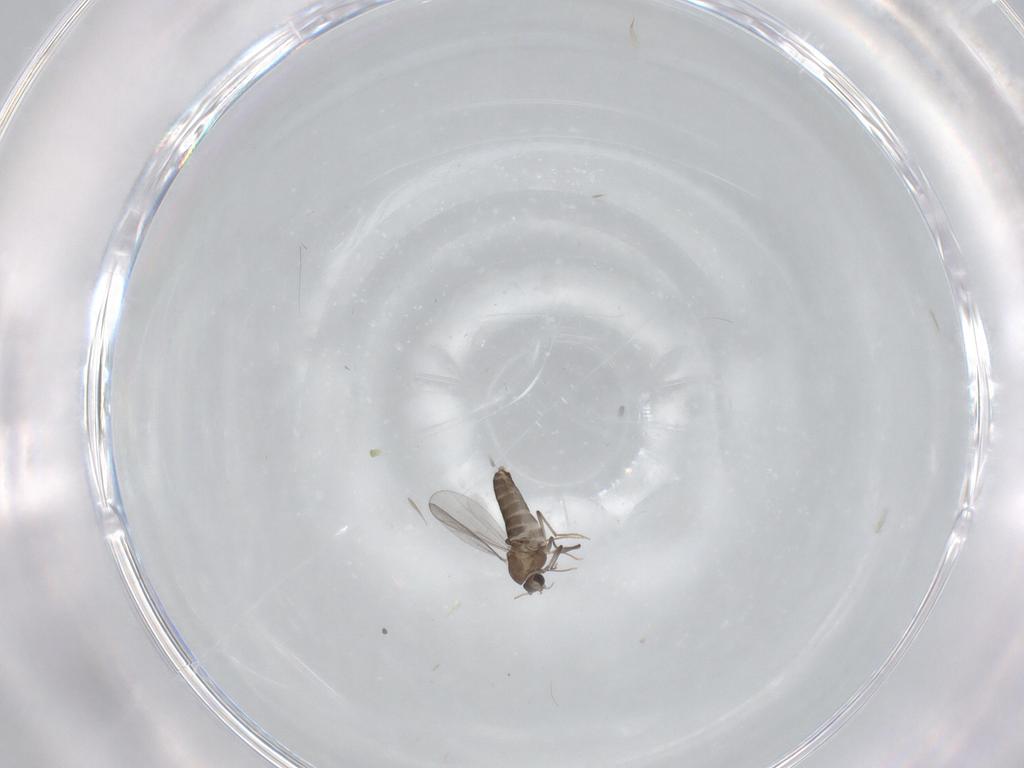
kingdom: Animalia
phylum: Arthropoda
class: Insecta
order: Diptera
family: Chironomidae
